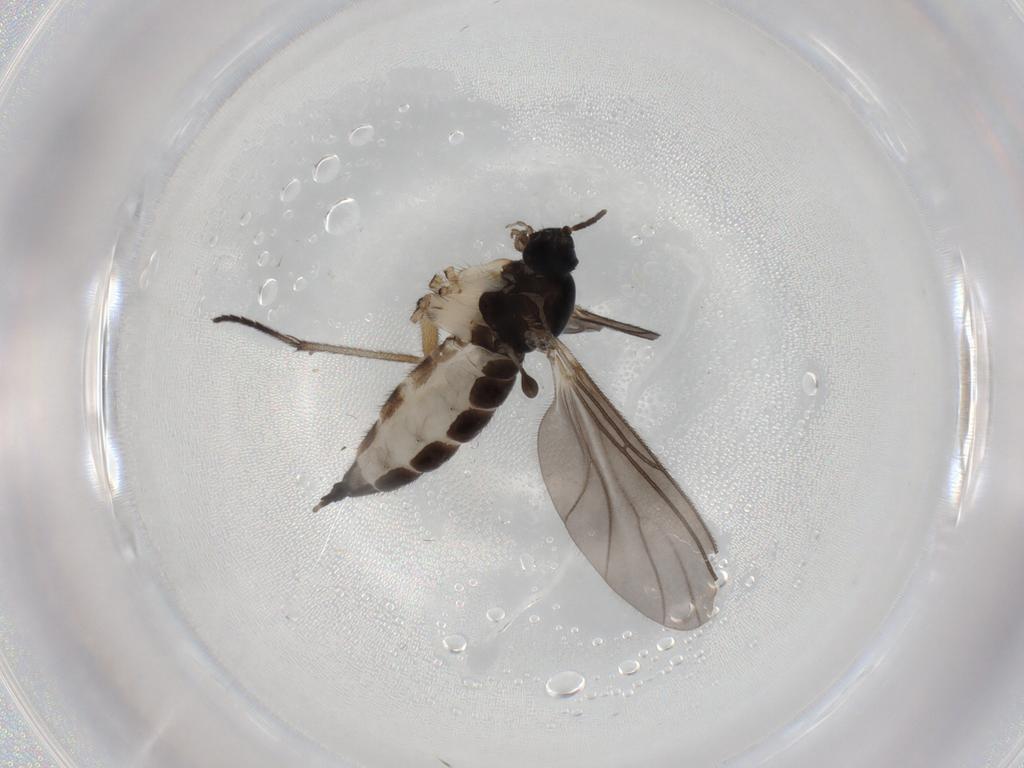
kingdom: Animalia
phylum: Arthropoda
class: Insecta
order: Diptera
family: Sciaridae
